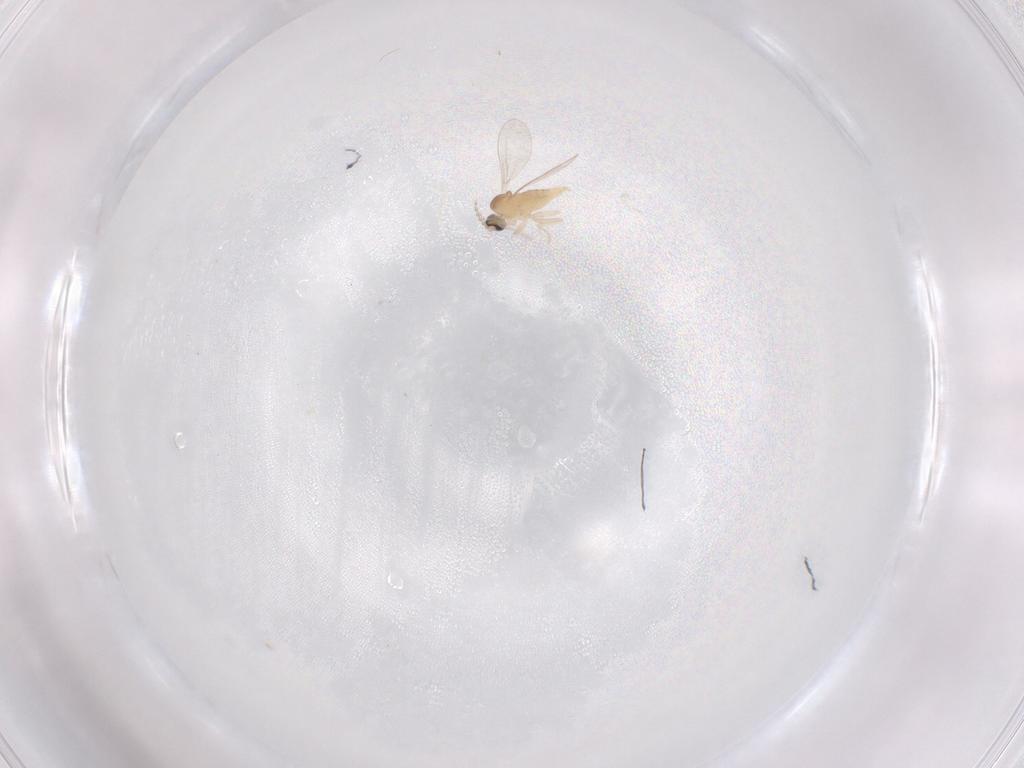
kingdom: Animalia
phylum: Arthropoda
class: Insecta
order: Diptera
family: Cecidomyiidae
